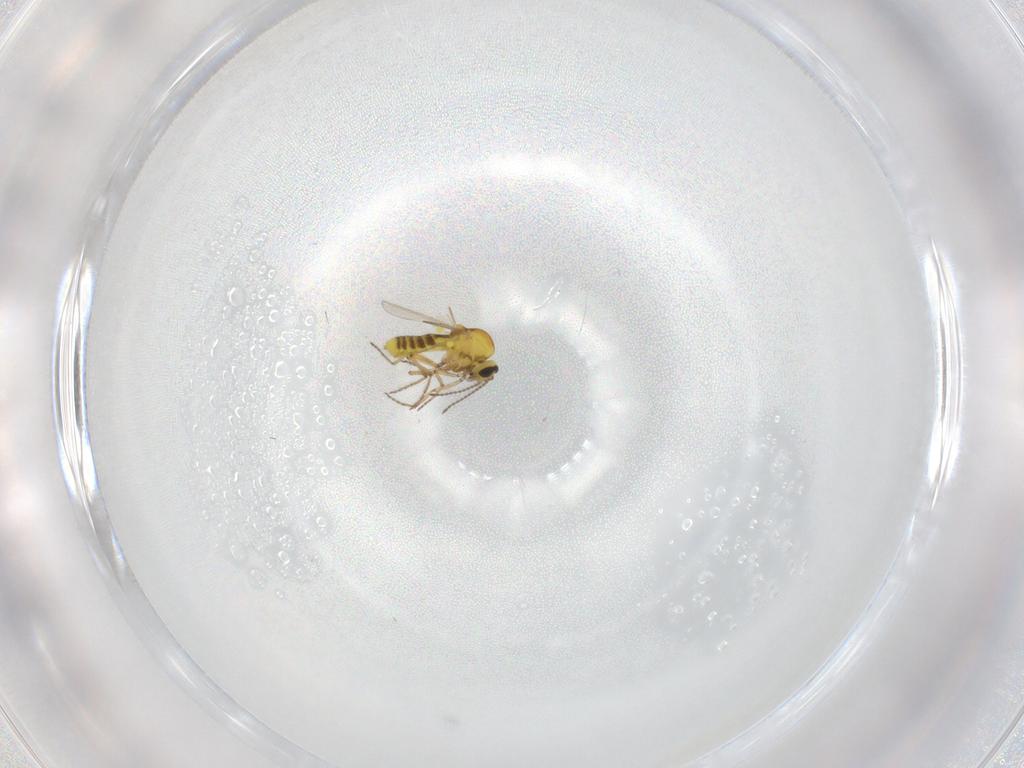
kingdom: Animalia
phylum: Arthropoda
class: Insecta
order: Diptera
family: Ceratopogonidae
